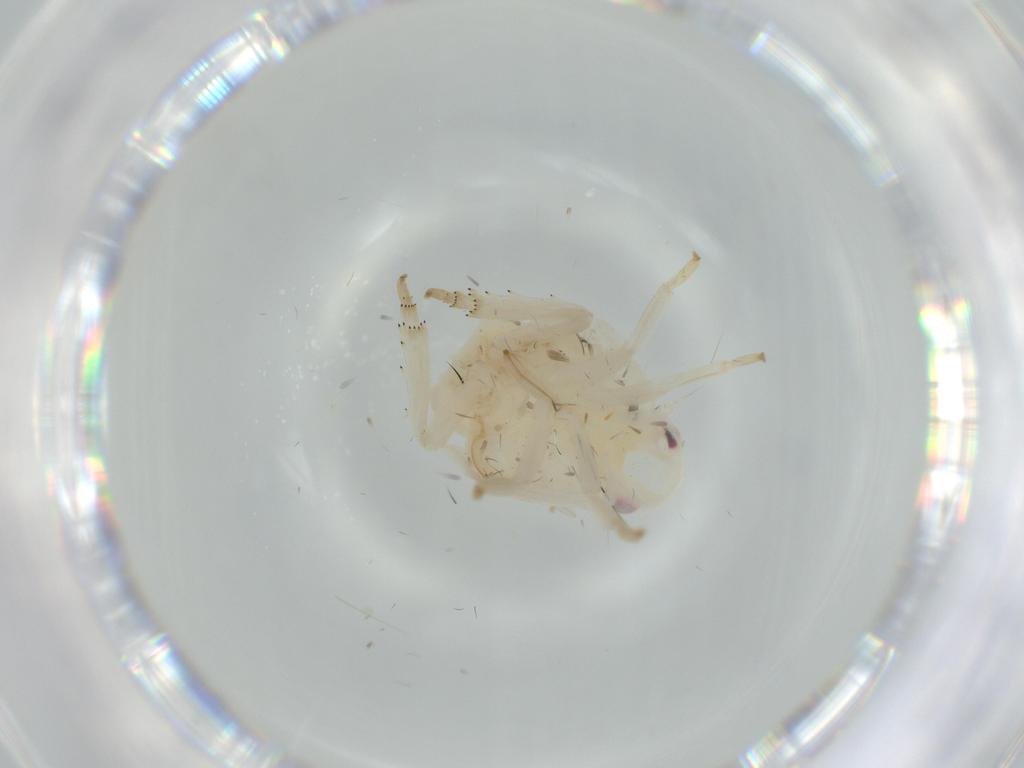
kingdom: Animalia
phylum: Arthropoda
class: Insecta
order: Hemiptera
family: Flatidae
